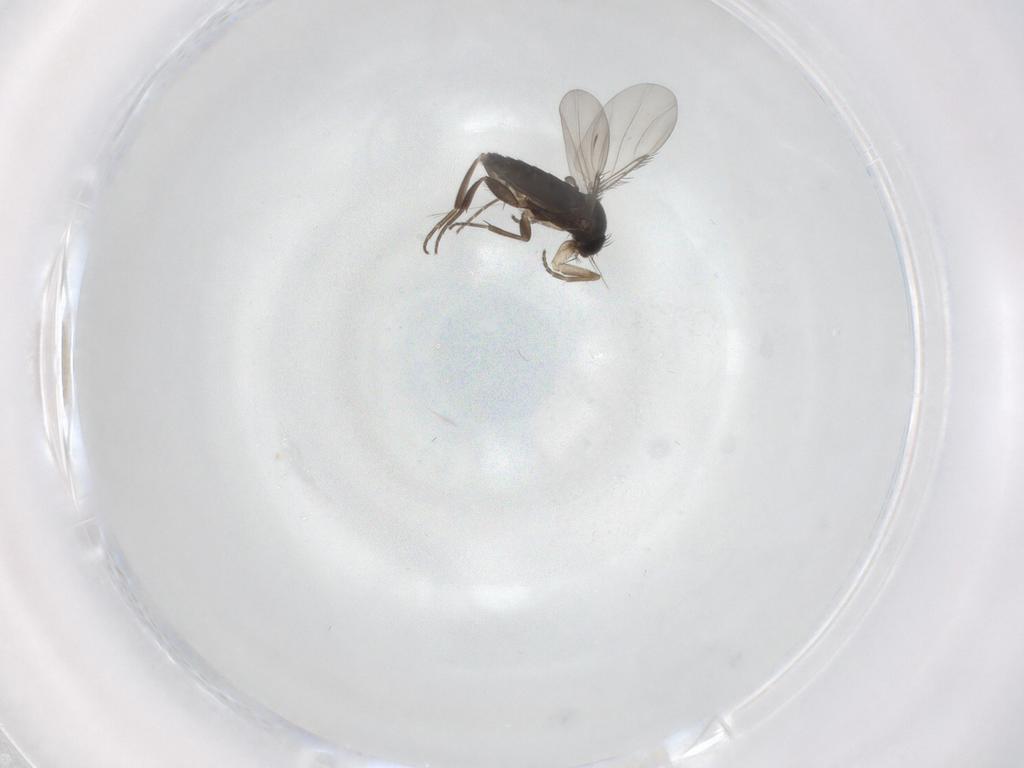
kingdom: Animalia
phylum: Arthropoda
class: Insecta
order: Diptera
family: Phoridae
